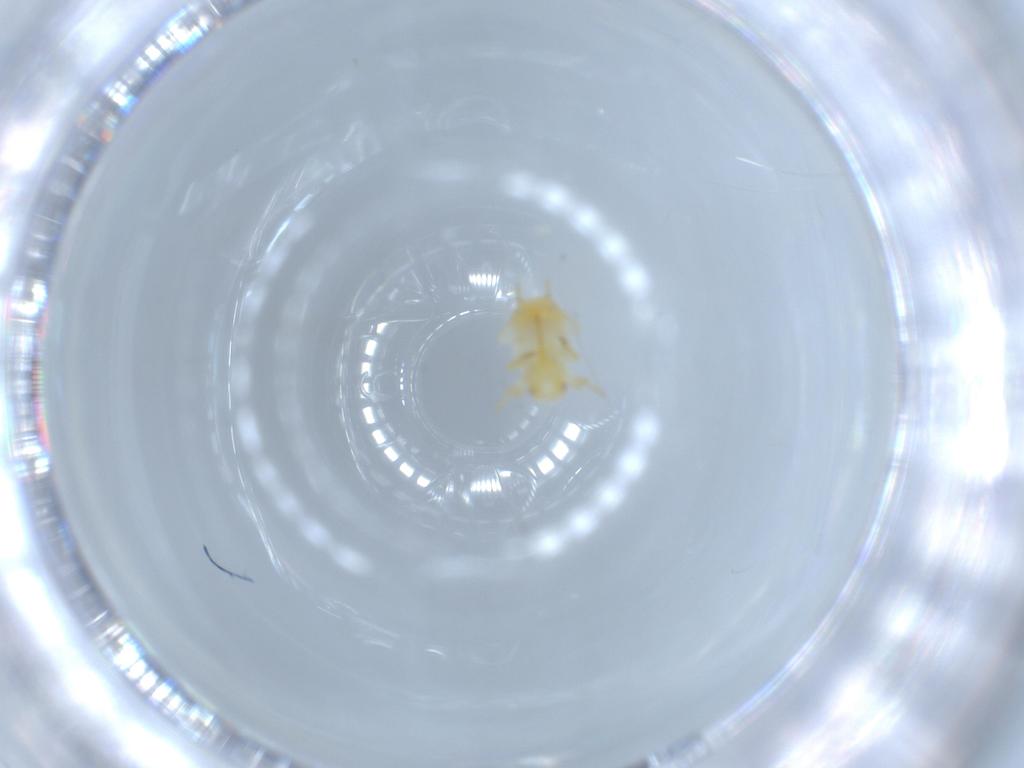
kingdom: Animalia
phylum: Arthropoda
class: Insecta
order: Hemiptera
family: Flatidae
